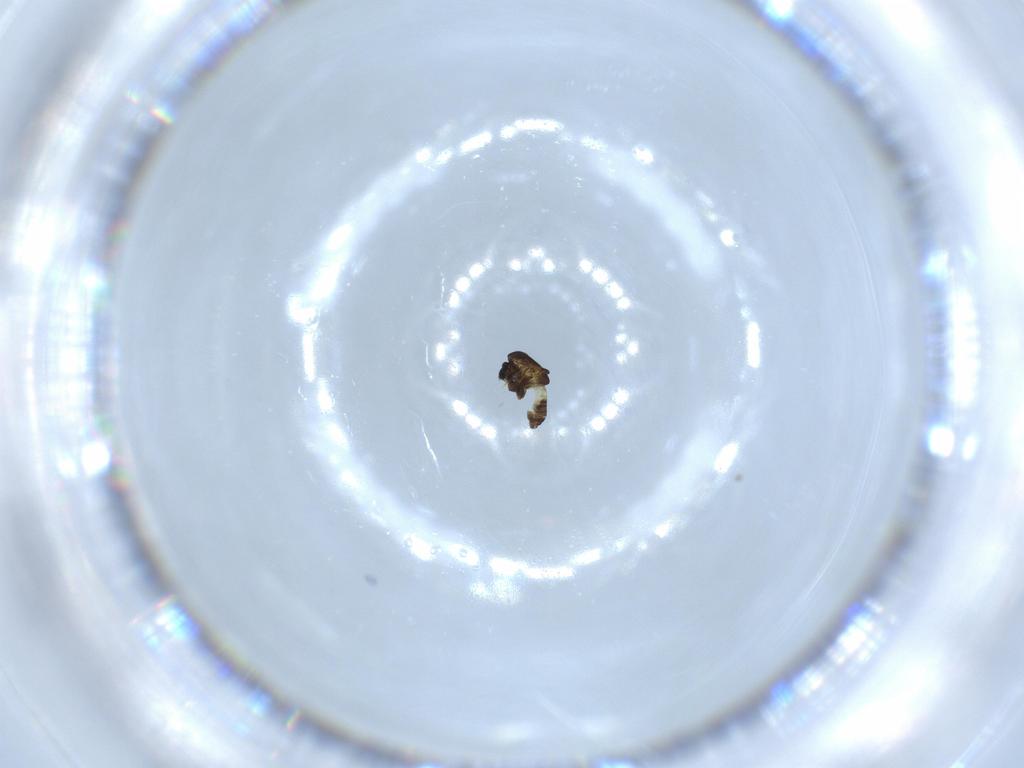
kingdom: Animalia
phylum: Arthropoda
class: Insecta
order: Diptera
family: Chironomidae
